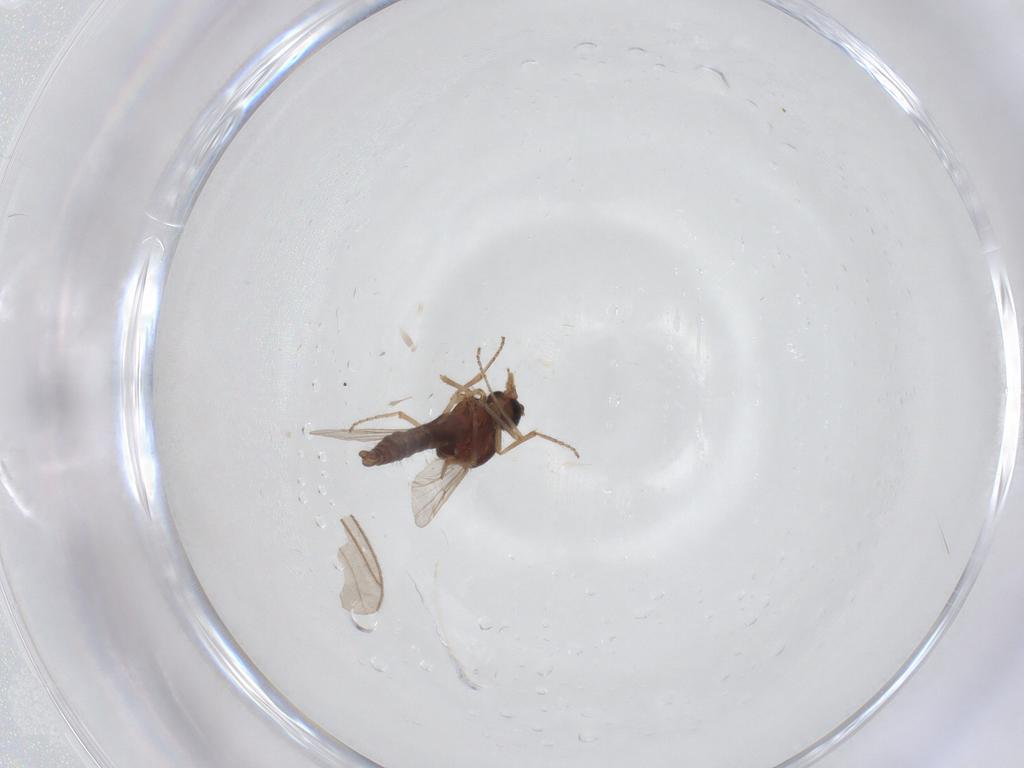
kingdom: Animalia
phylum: Arthropoda
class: Insecta
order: Diptera
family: Sciaridae
